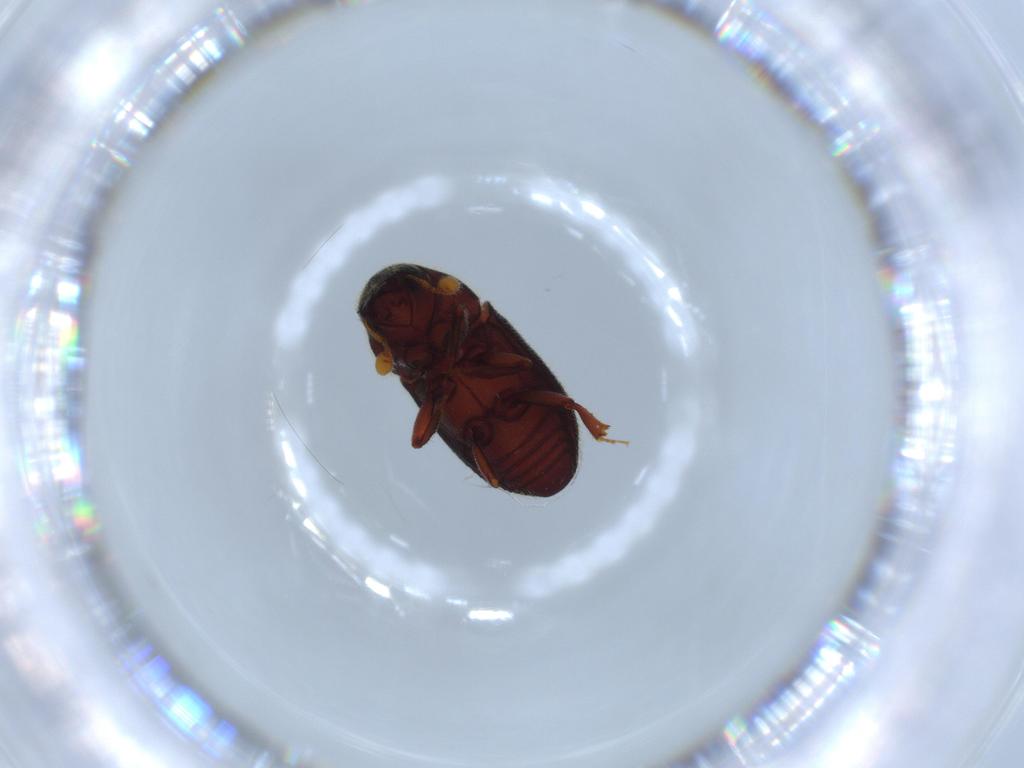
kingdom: Animalia
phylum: Arthropoda
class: Insecta
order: Coleoptera
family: Curculionidae
